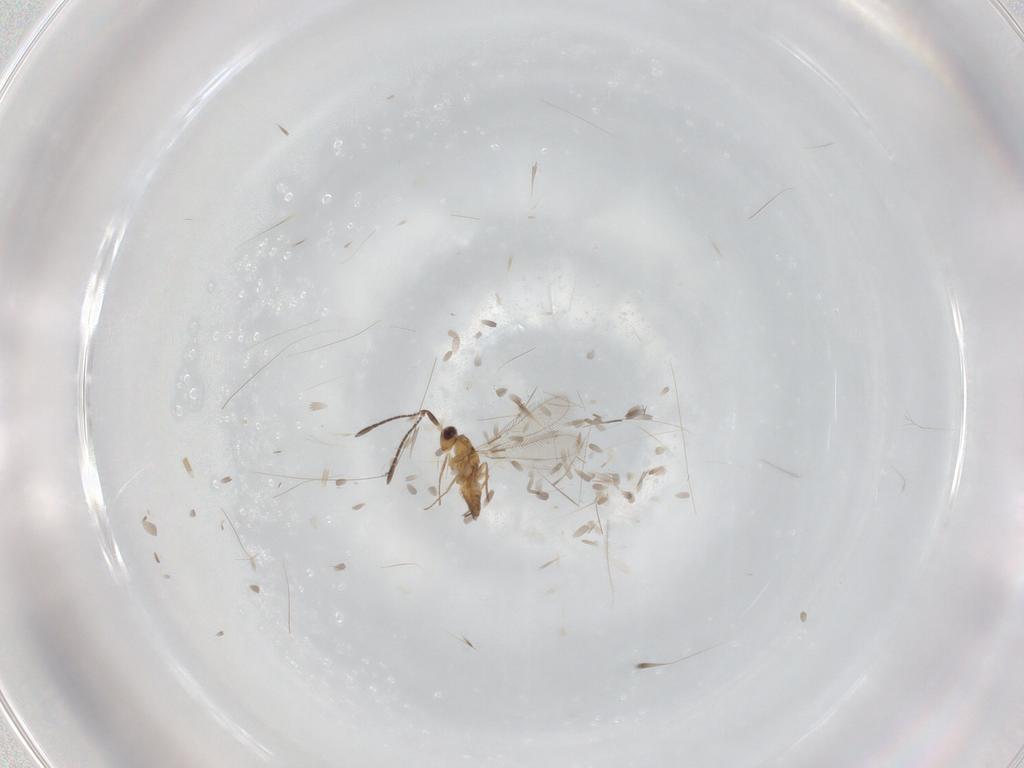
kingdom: Animalia
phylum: Arthropoda
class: Insecta
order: Hymenoptera
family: Mymaridae
